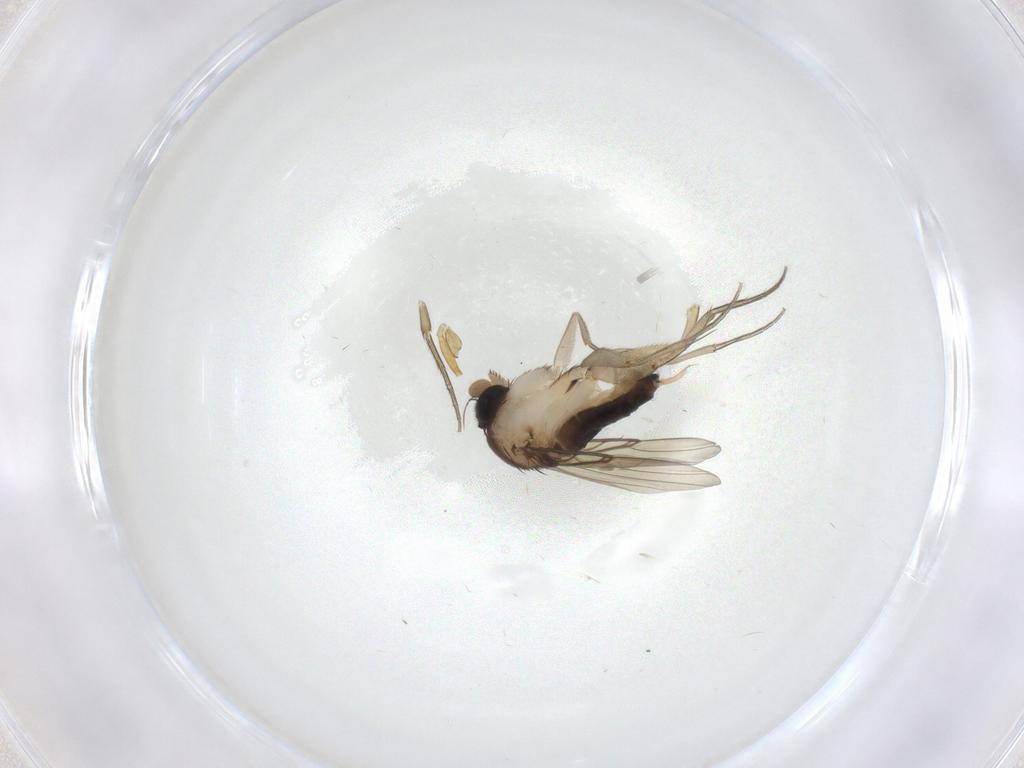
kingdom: Animalia
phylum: Arthropoda
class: Insecta
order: Diptera
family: Phoridae
